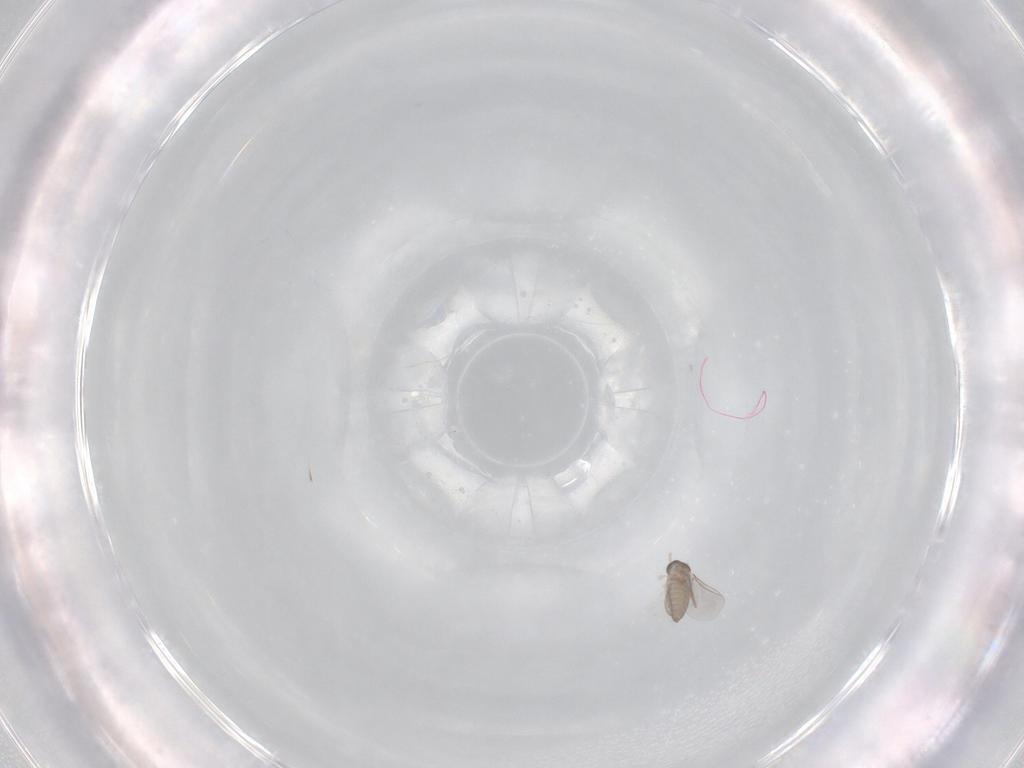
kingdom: Animalia
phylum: Arthropoda
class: Insecta
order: Diptera
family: Cecidomyiidae
